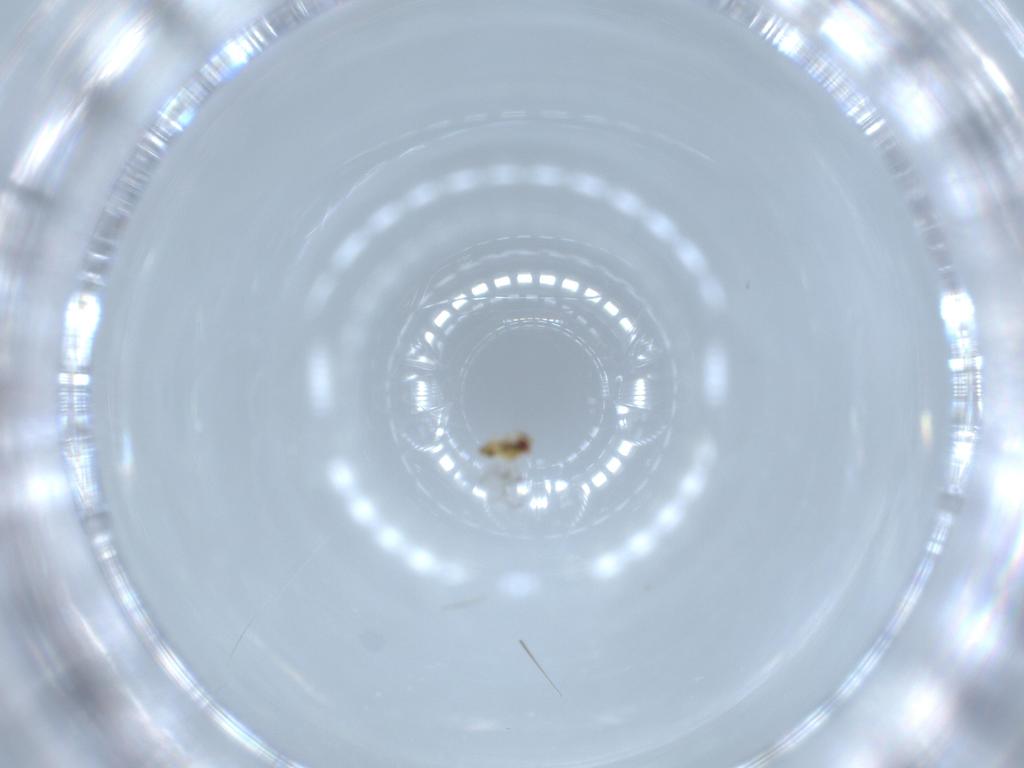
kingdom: Animalia
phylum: Arthropoda
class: Insecta
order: Hymenoptera
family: Trichogrammatidae
